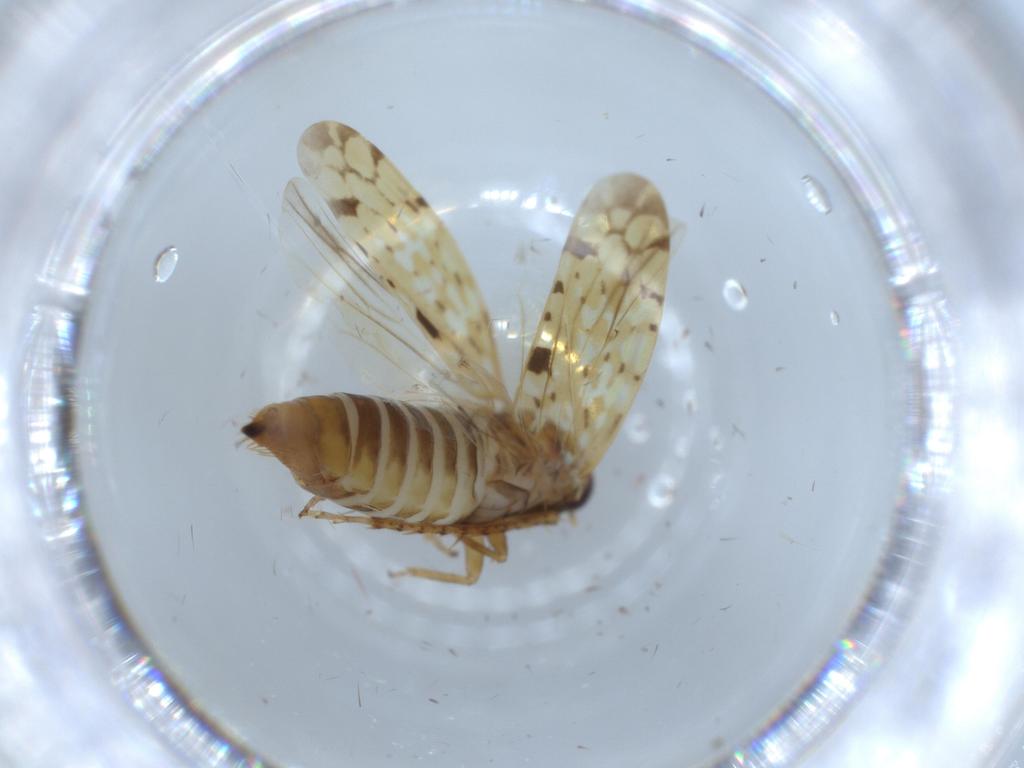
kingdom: Animalia
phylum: Arthropoda
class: Insecta
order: Hemiptera
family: Cicadellidae
